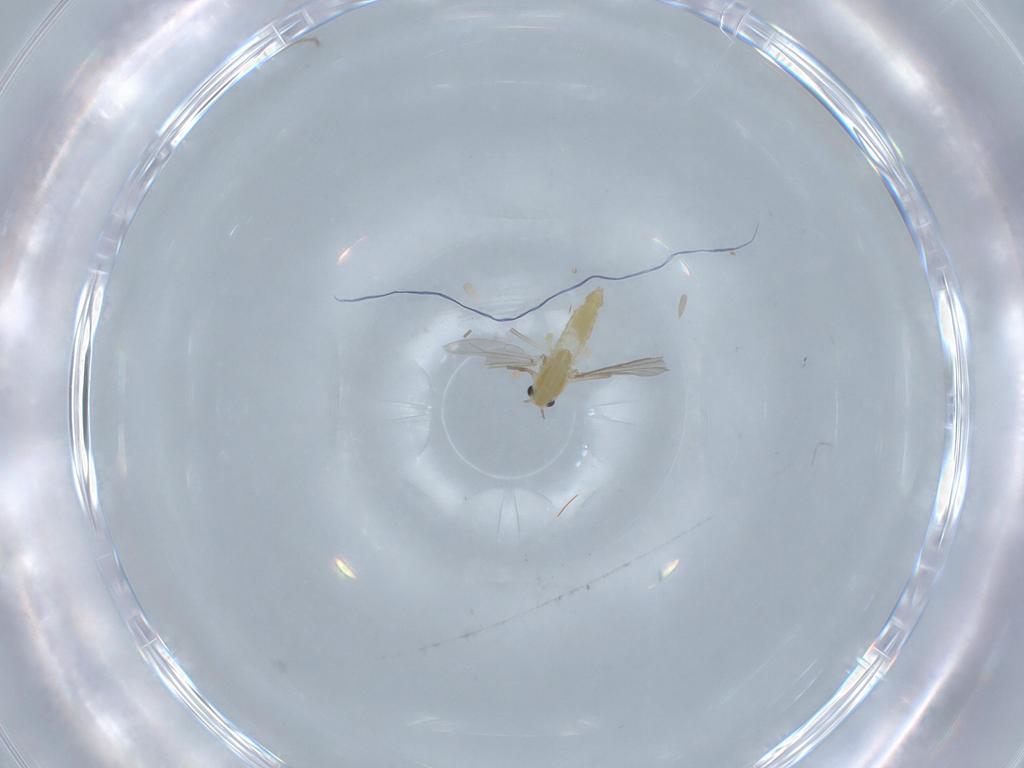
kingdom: Animalia
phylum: Arthropoda
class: Insecta
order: Diptera
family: Chironomidae
